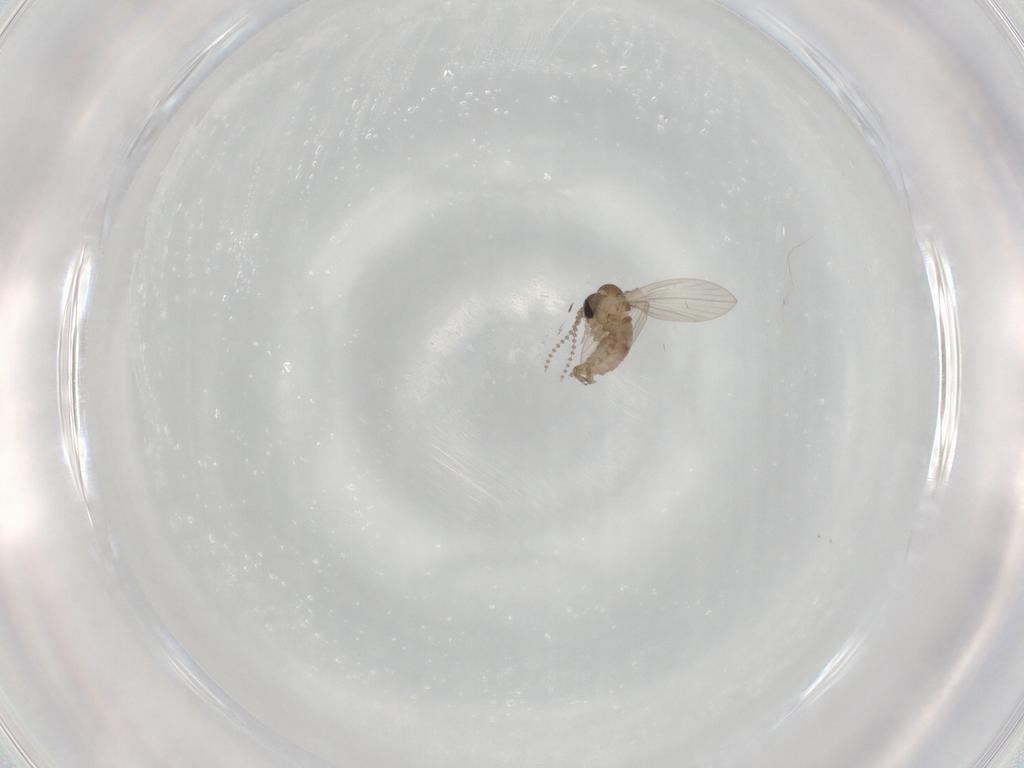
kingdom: Animalia
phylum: Arthropoda
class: Insecta
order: Diptera
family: Psychodidae
